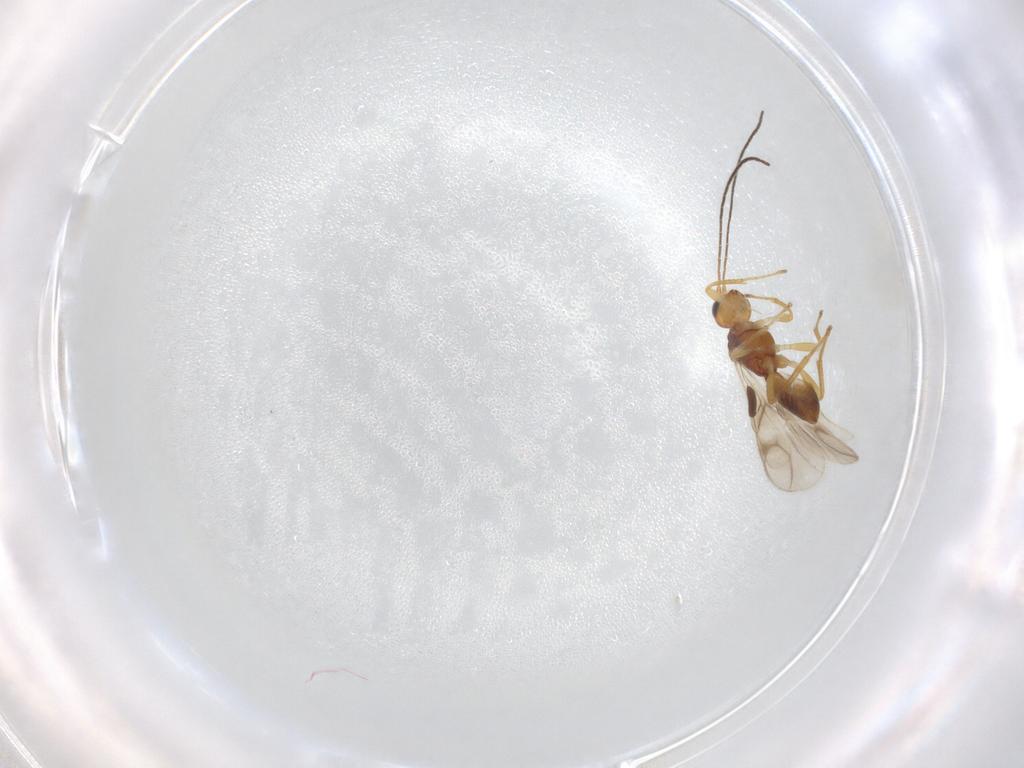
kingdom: Animalia
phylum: Arthropoda
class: Insecta
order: Hymenoptera
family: Braconidae
